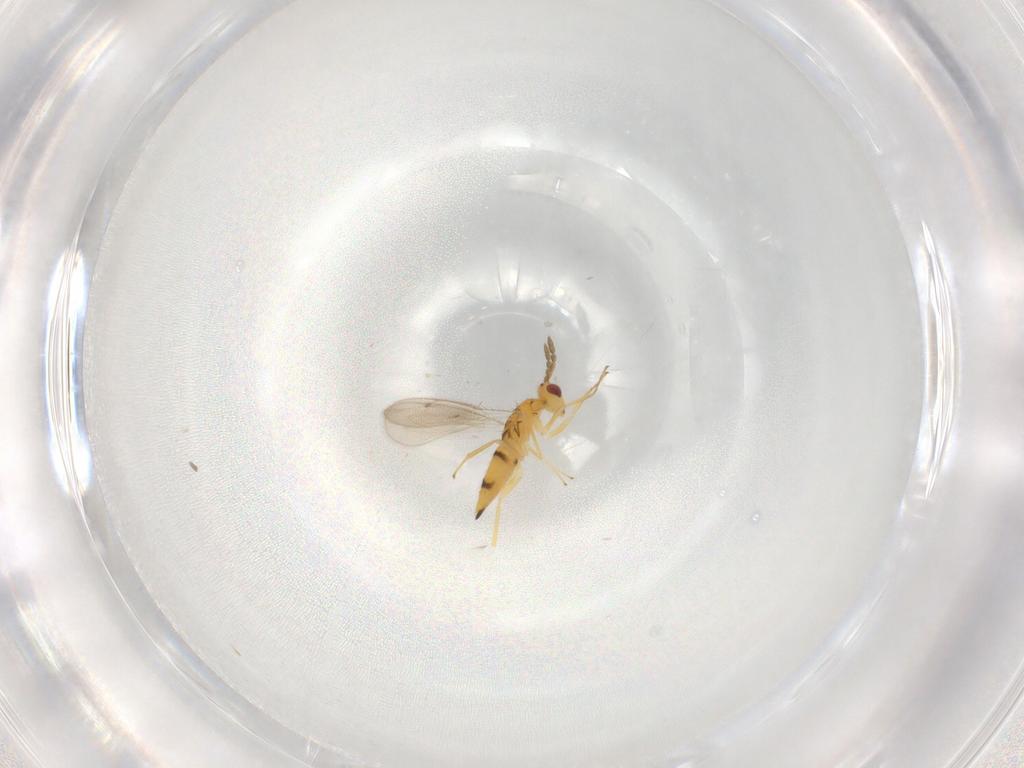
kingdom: Animalia
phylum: Arthropoda
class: Insecta
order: Hymenoptera
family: Eulophidae
